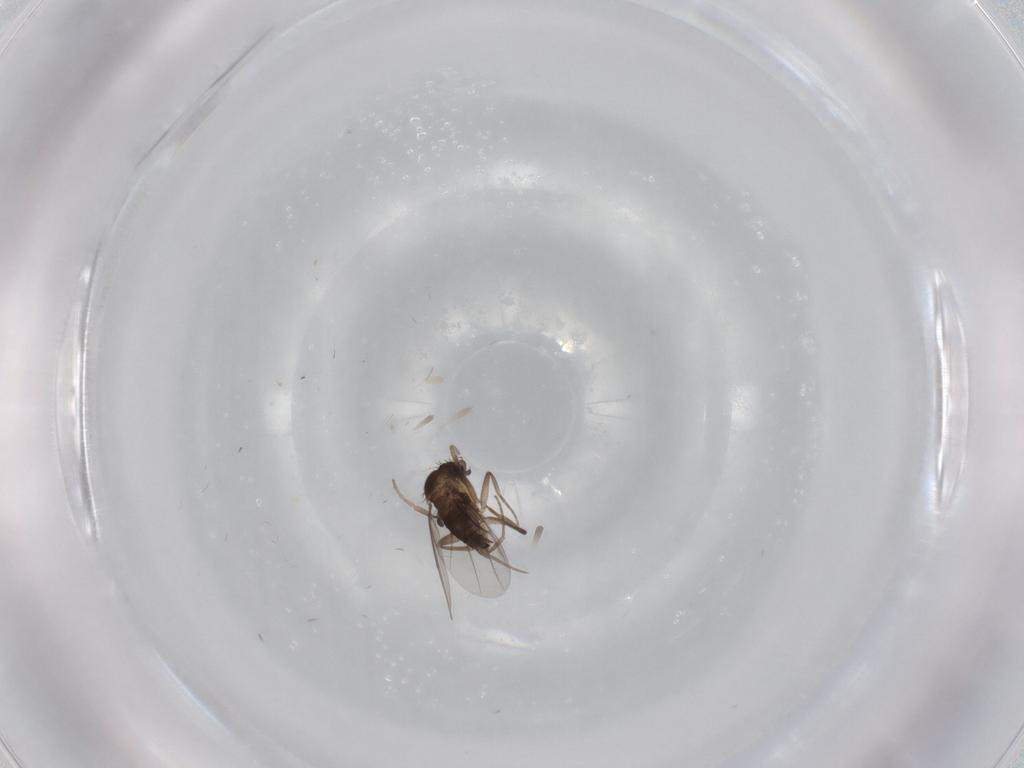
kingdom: Animalia
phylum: Arthropoda
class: Insecta
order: Diptera
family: Phoridae
